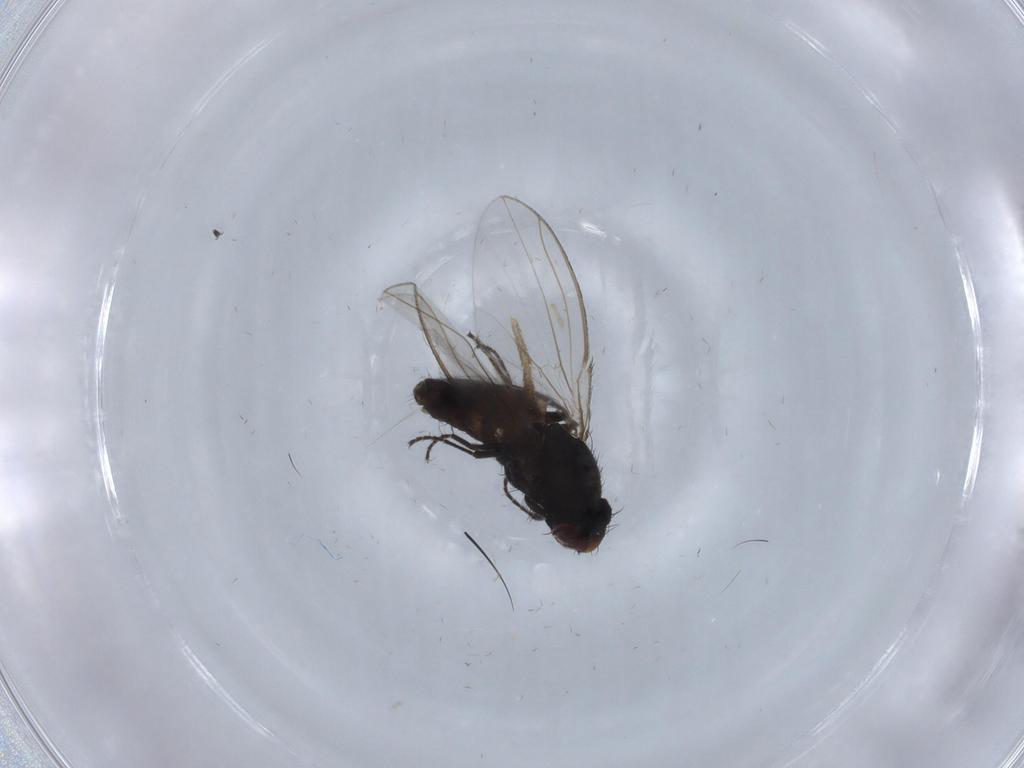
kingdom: Animalia
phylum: Arthropoda
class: Insecta
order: Diptera
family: Carnidae
